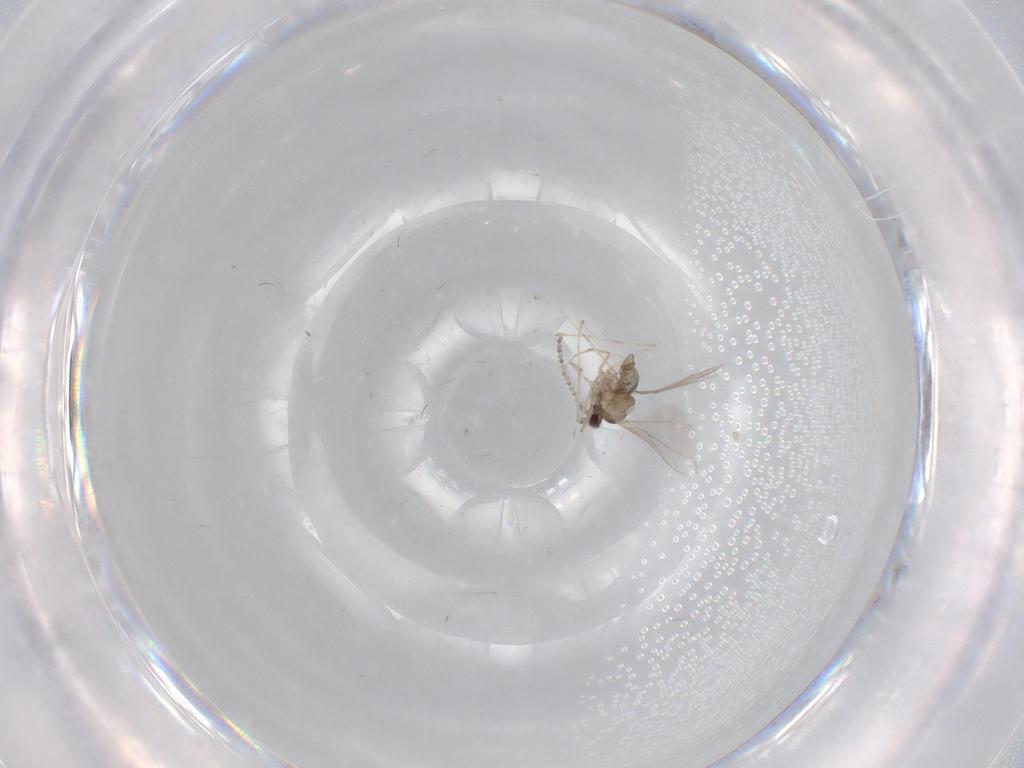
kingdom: Animalia
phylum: Arthropoda
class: Insecta
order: Diptera
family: Cecidomyiidae
